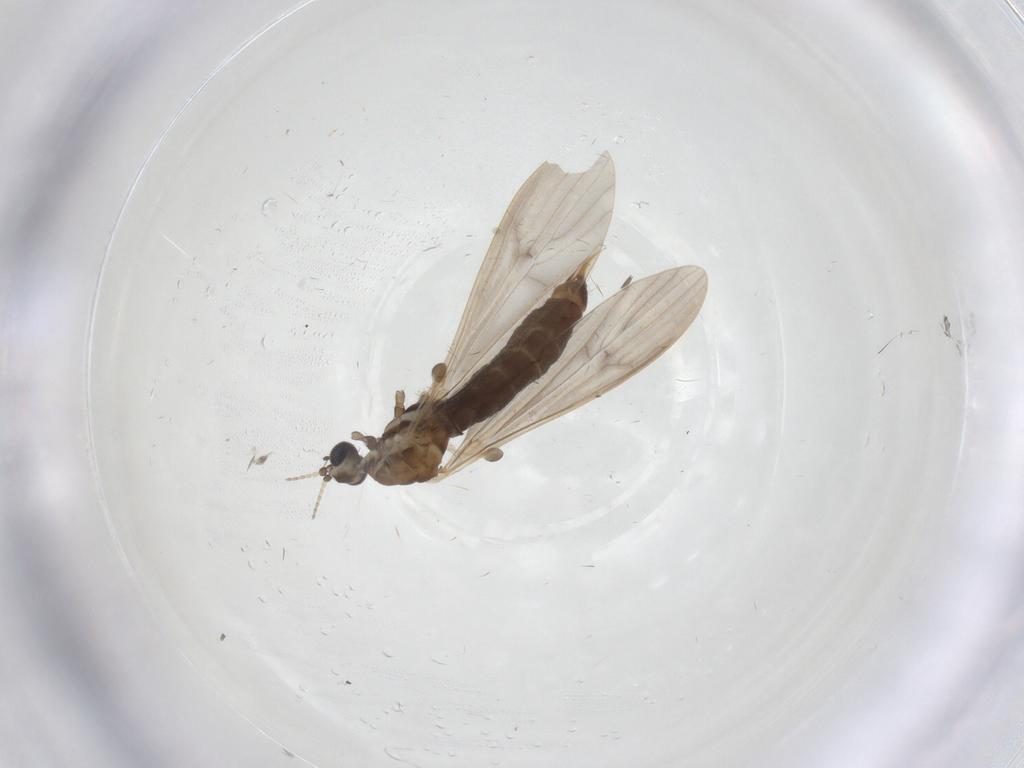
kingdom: Animalia
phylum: Arthropoda
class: Insecta
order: Diptera
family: Limoniidae
